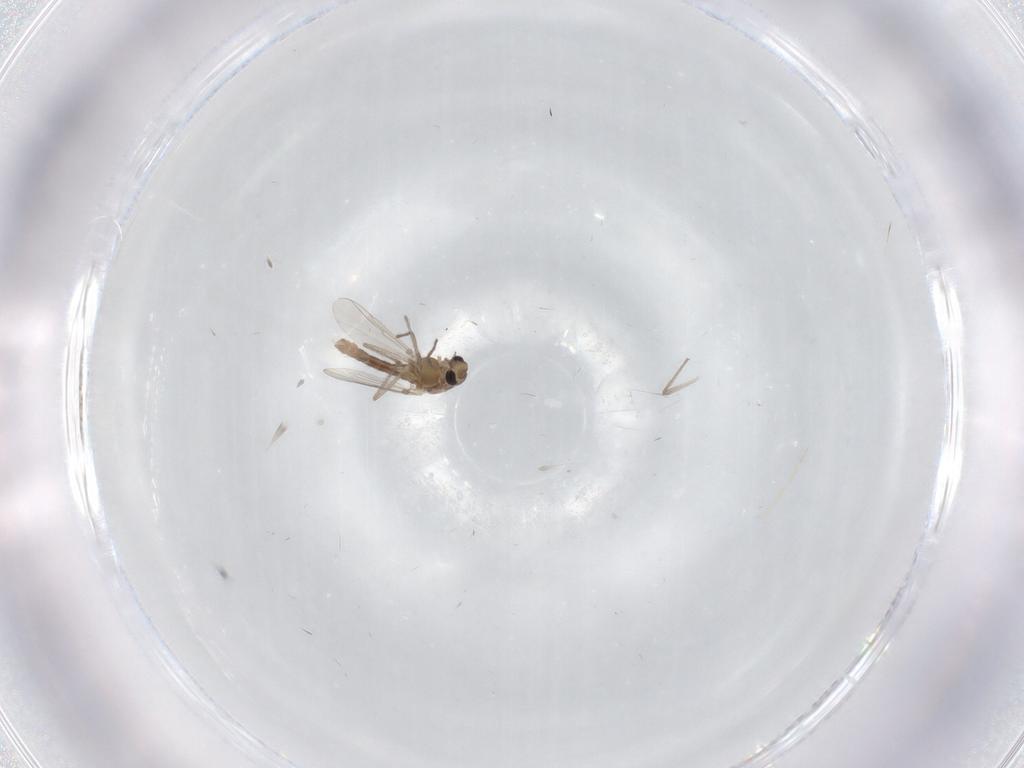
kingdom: Animalia
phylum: Arthropoda
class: Insecta
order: Diptera
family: Chironomidae
